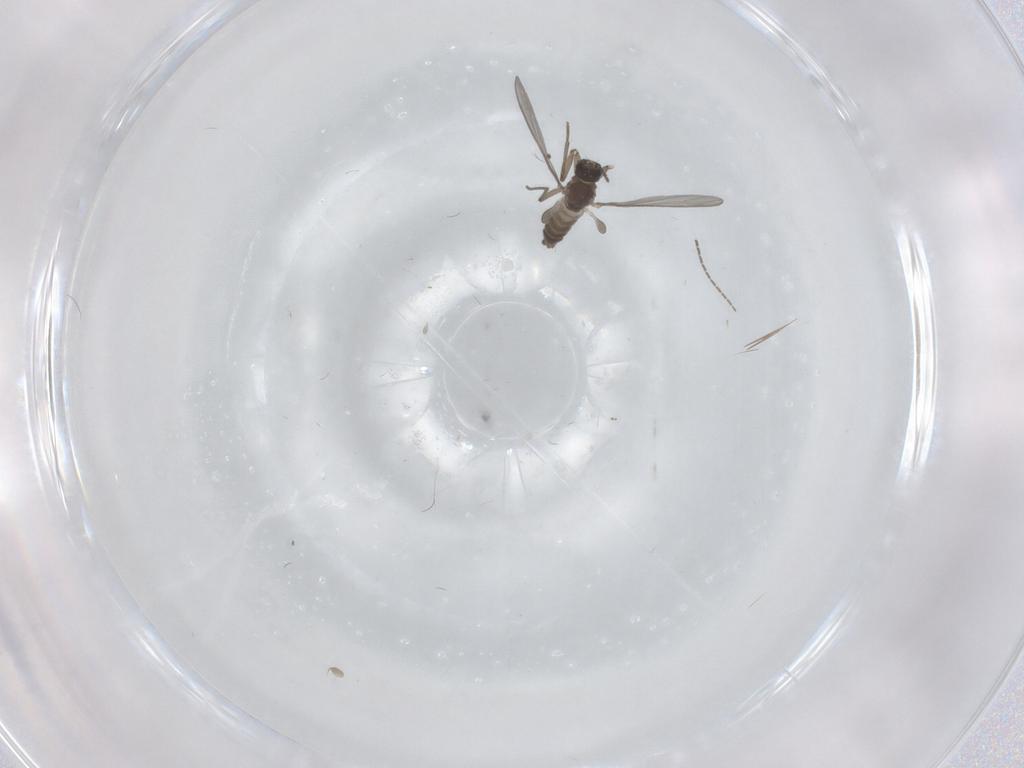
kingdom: Animalia
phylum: Arthropoda
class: Insecta
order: Diptera
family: Sciaridae
